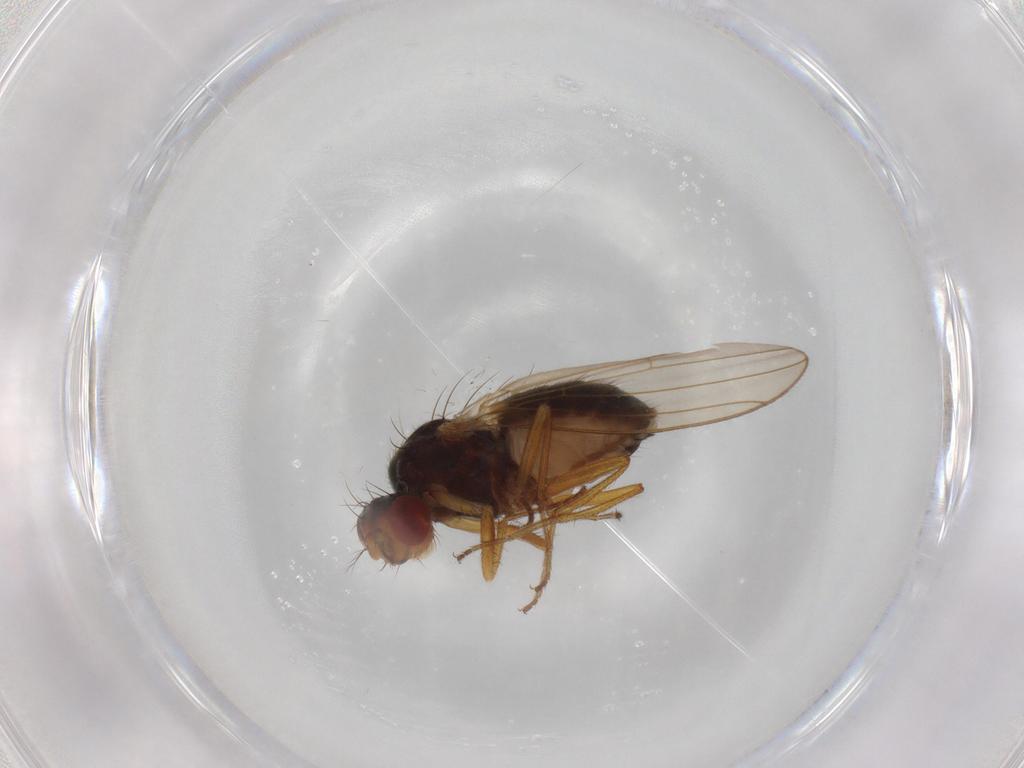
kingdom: Animalia
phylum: Arthropoda
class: Insecta
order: Diptera
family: Drosophilidae
